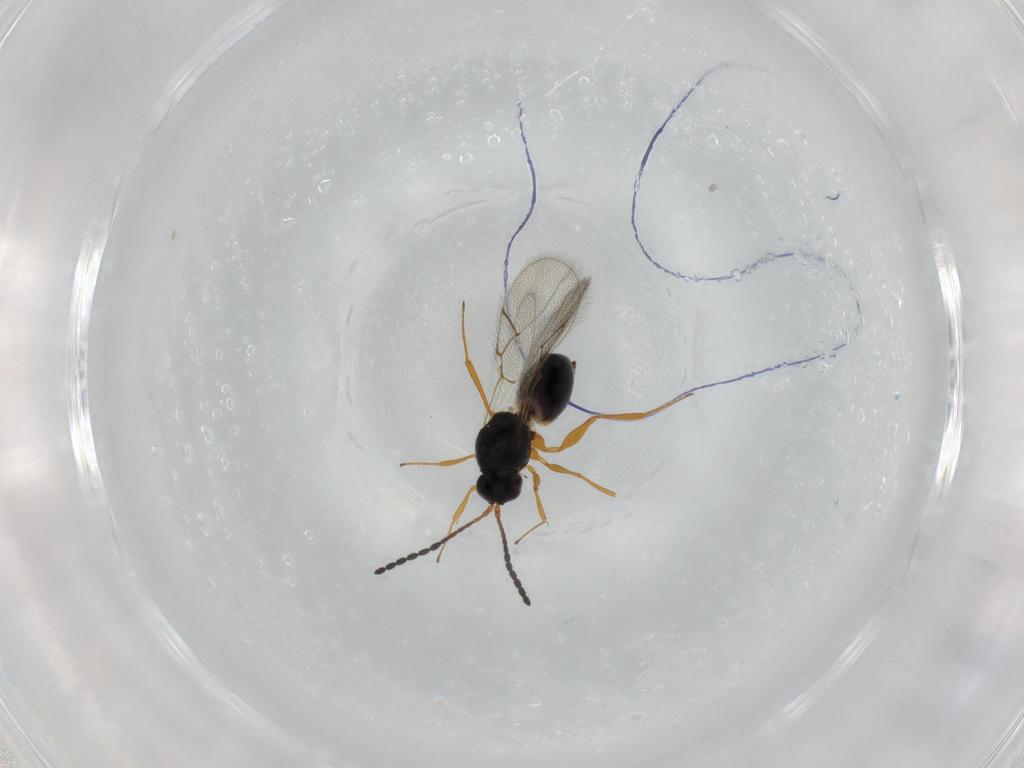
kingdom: Animalia
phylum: Arthropoda
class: Insecta
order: Hymenoptera
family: Figitidae
